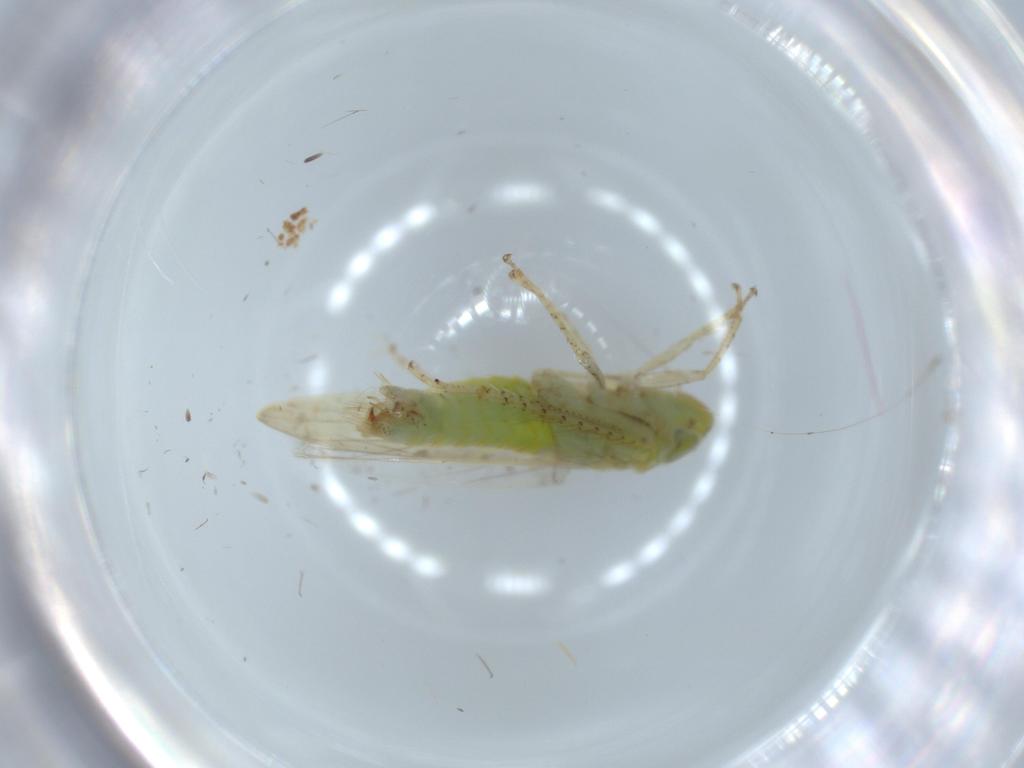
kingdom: Animalia
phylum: Arthropoda
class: Insecta
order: Hemiptera
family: Cicadellidae
